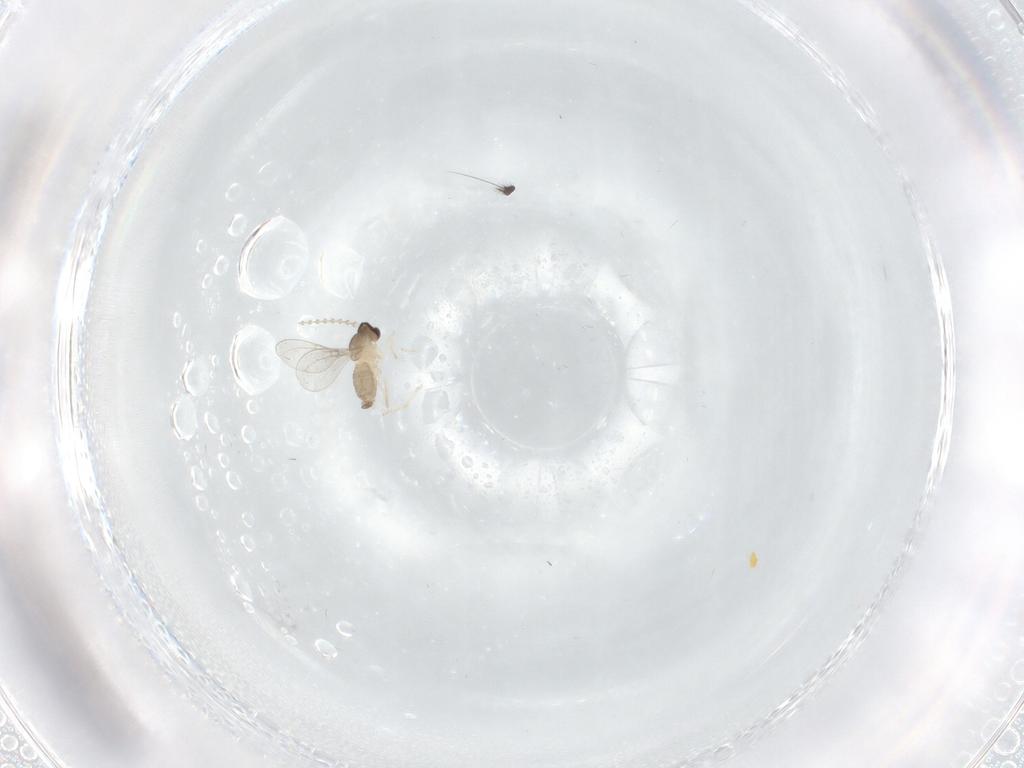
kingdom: Animalia
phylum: Arthropoda
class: Insecta
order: Diptera
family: Cecidomyiidae
